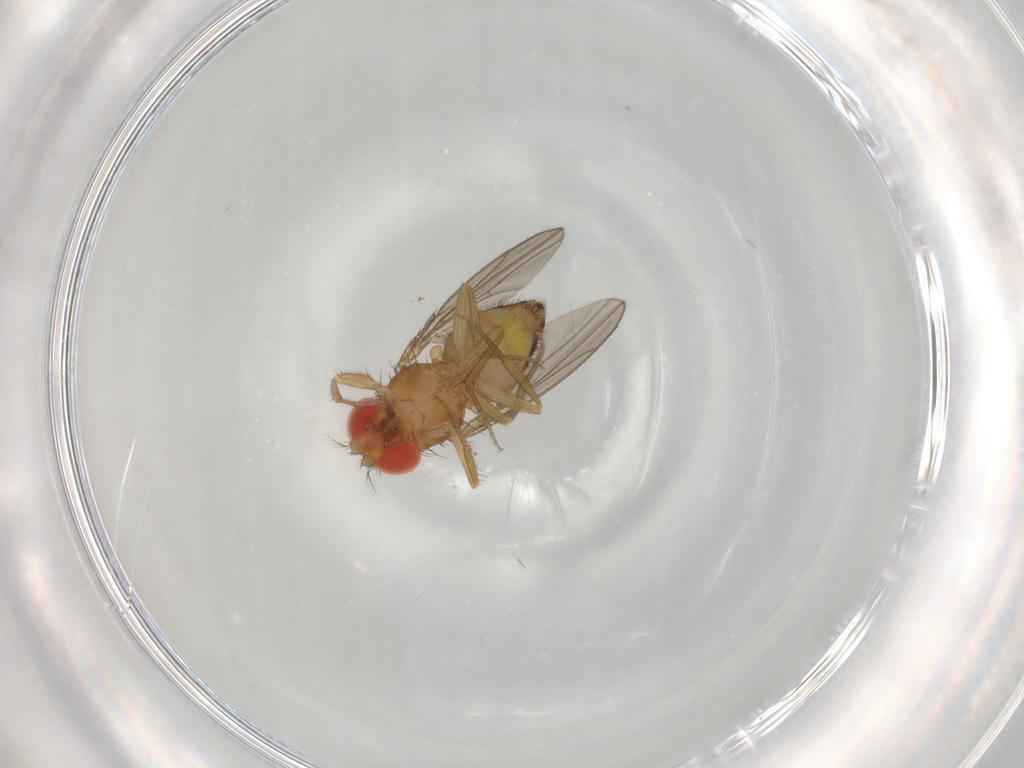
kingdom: Animalia
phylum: Arthropoda
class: Insecta
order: Diptera
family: Drosophilidae
